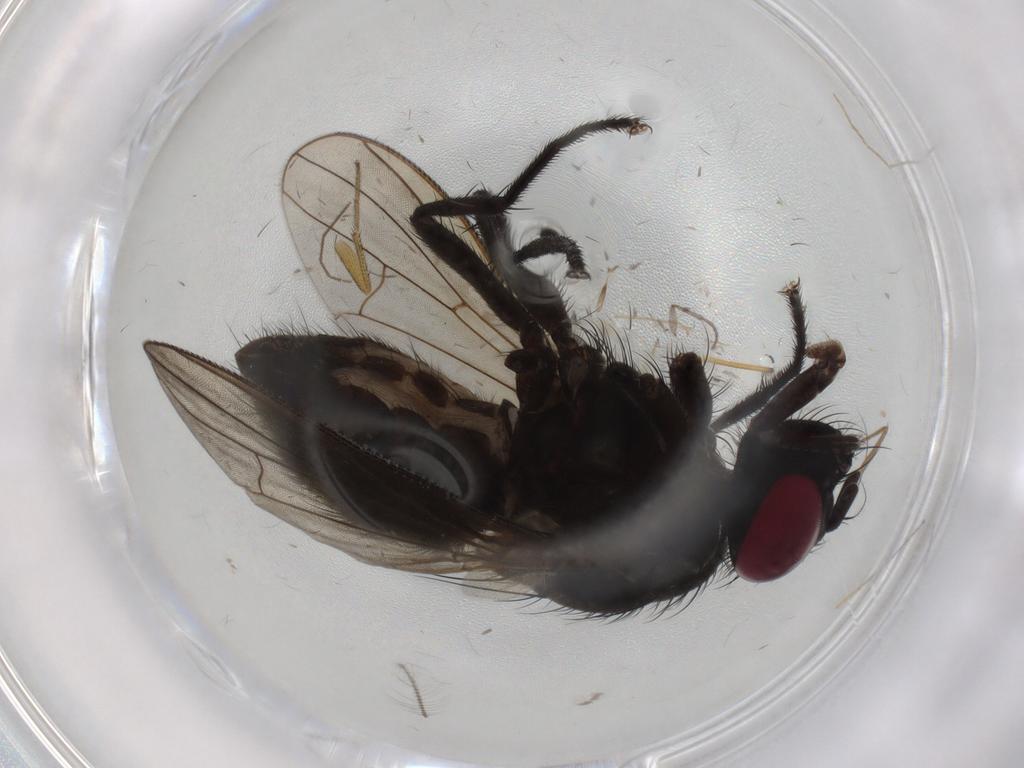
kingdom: Animalia
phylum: Arthropoda
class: Insecta
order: Diptera
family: Muscidae
